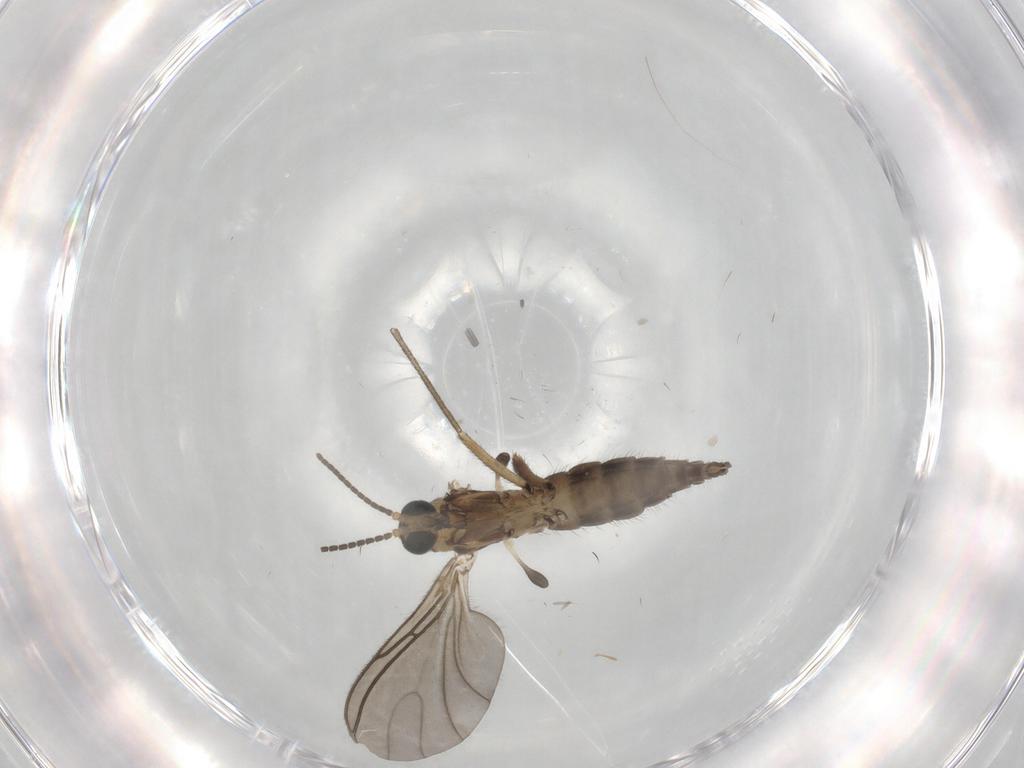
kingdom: Animalia
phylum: Arthropoda
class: Insecta
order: Diptera
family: Sciaridae
